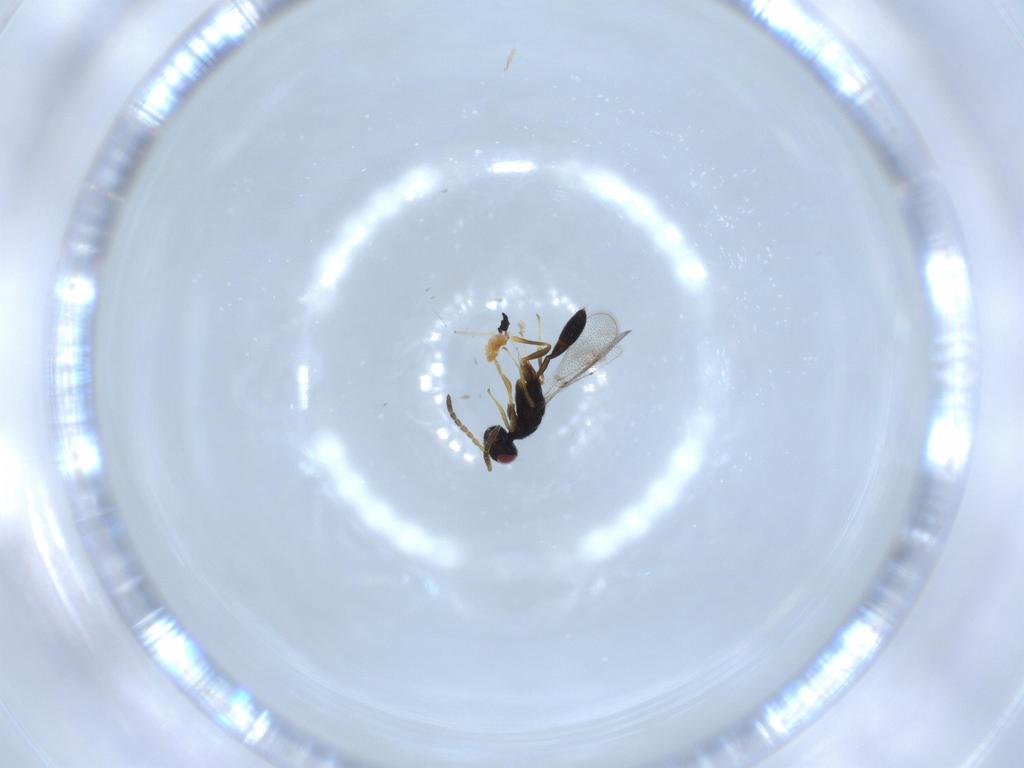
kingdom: Animalia
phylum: Arthropoda
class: Insecta
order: Hymenoptera
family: Cerocephalidae
